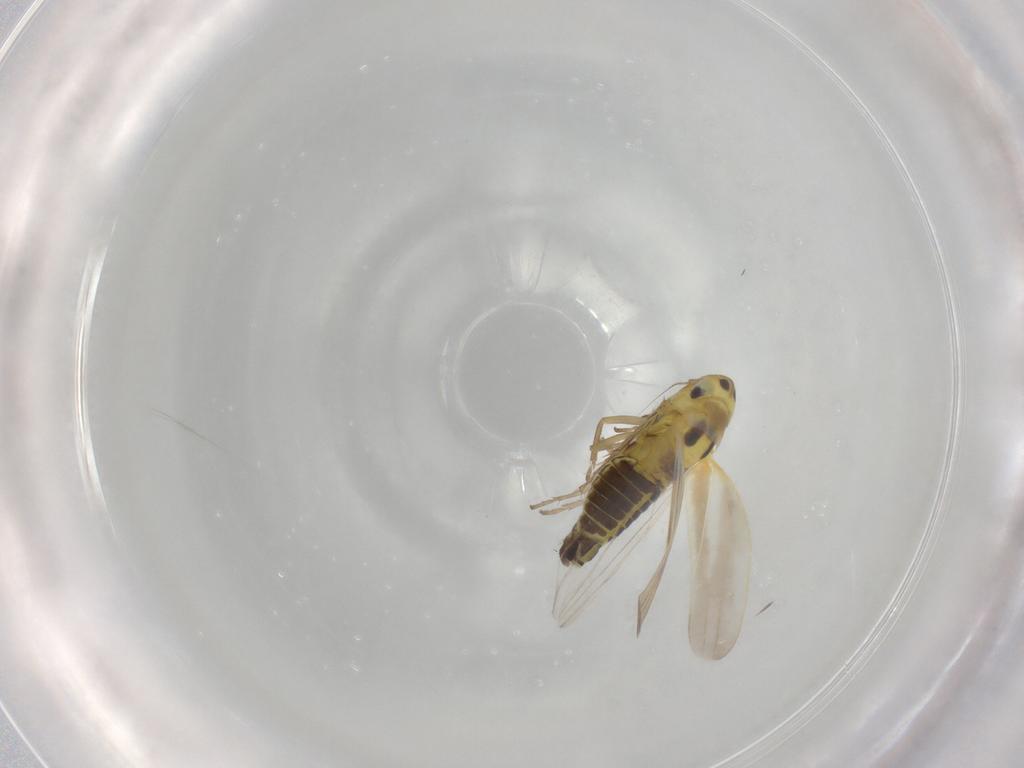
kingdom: Animalia
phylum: Arthropoda
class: Insecta
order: Hemiptera
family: Cicadellidae
